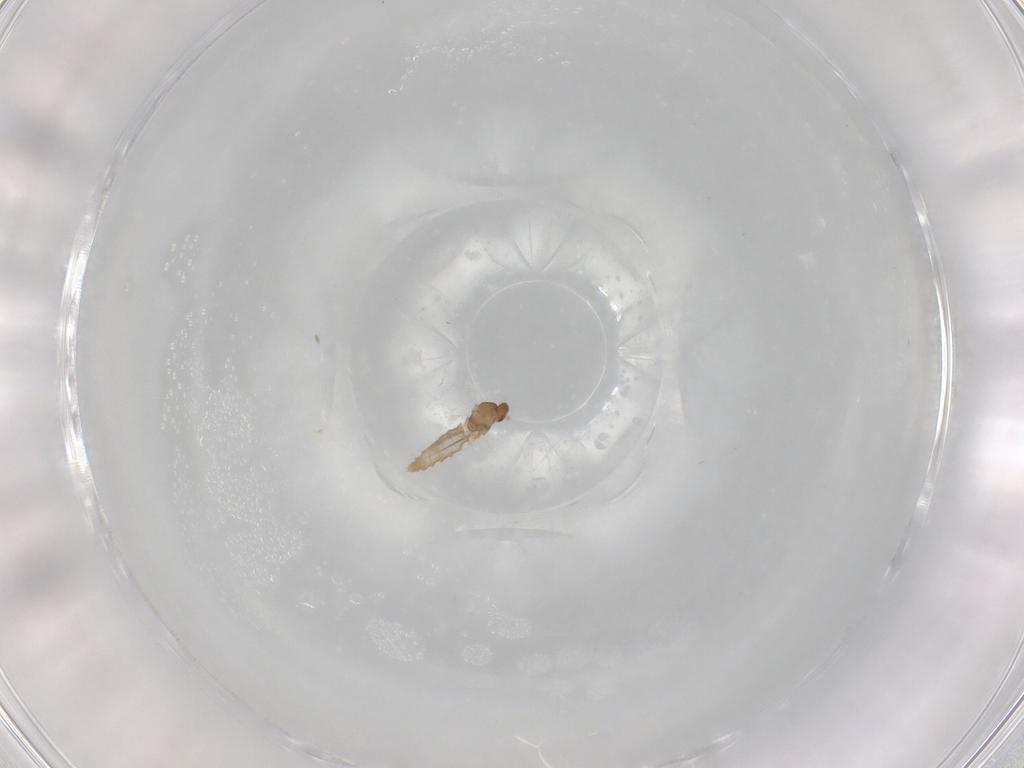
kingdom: Animalia
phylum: Arthropoda
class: Insecta
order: Diptera
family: Muscidae
